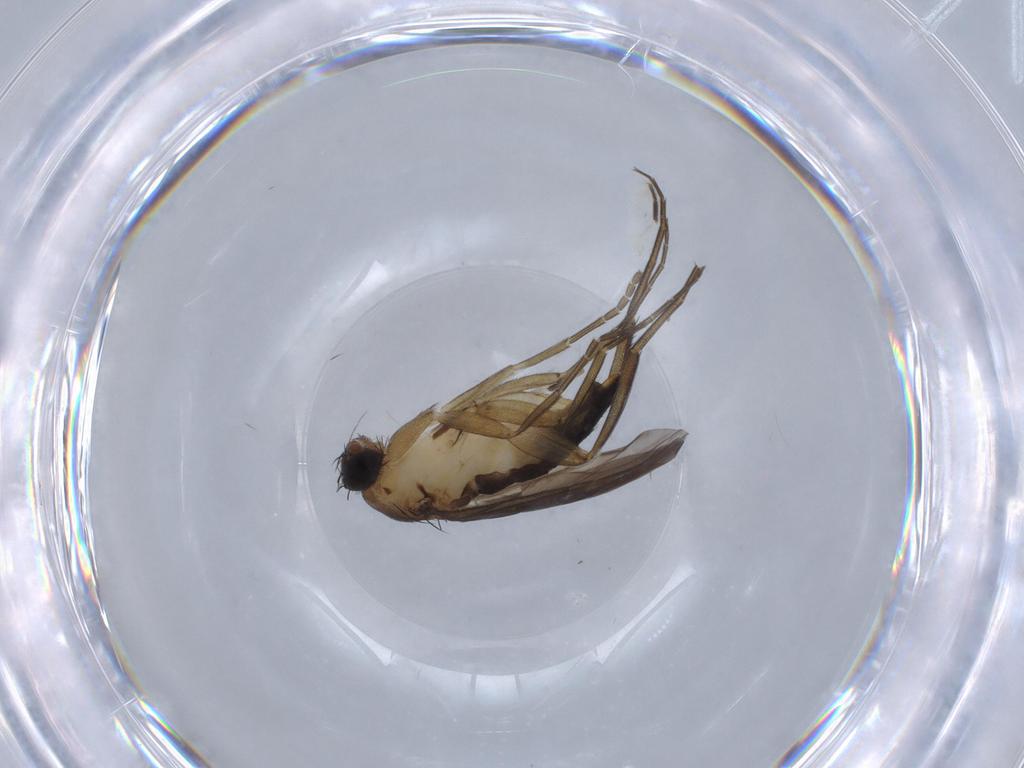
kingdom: Animalia
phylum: Arthropoda
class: Insecta
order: Diptera
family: Phoridae
